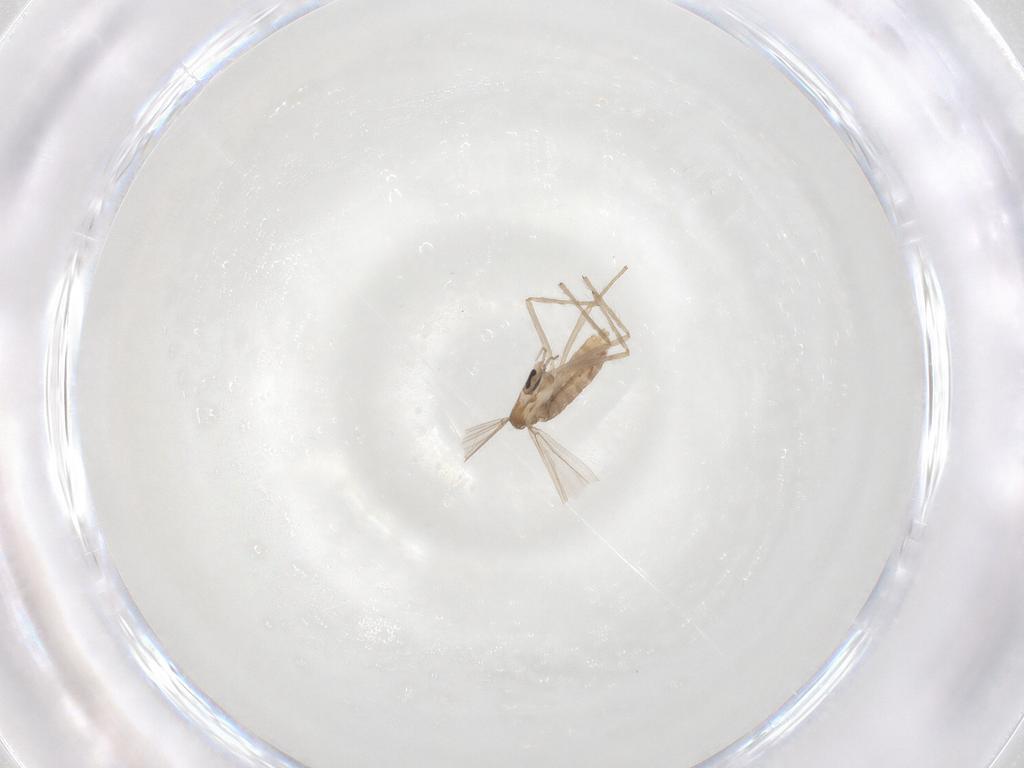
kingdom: Animalia
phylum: Arthropoda
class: Insecta
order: Diptera
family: Chironomidae
